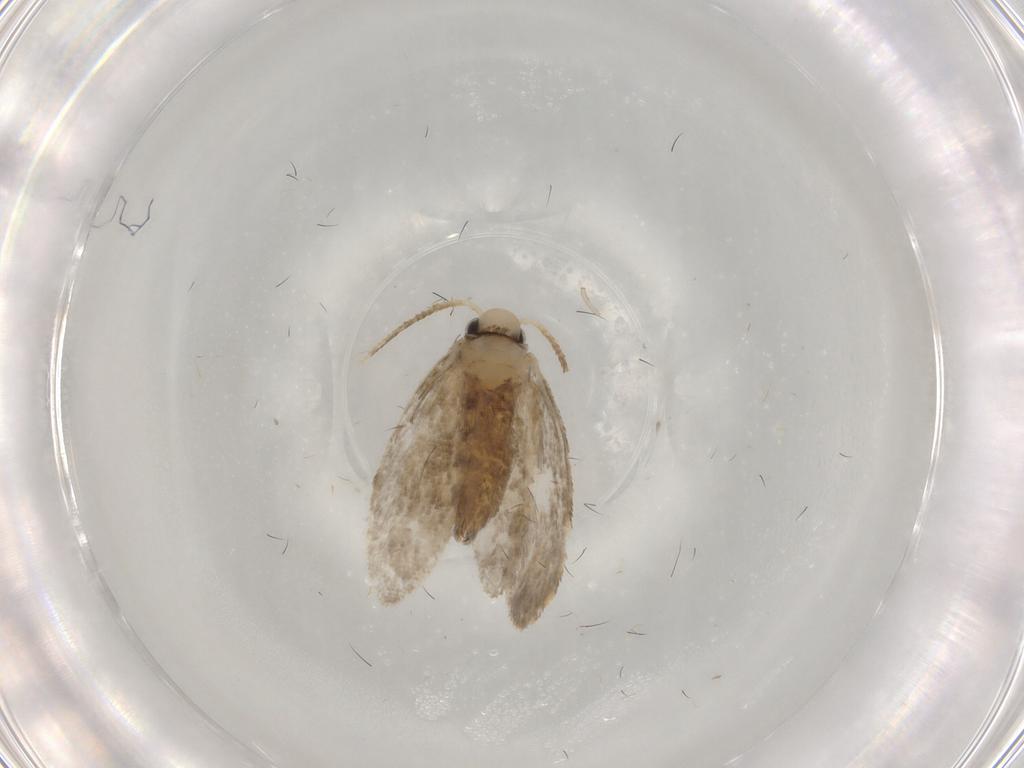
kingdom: Animalia
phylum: Arthropoda
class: Insecta
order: Lepidoptera
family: Psychidae
